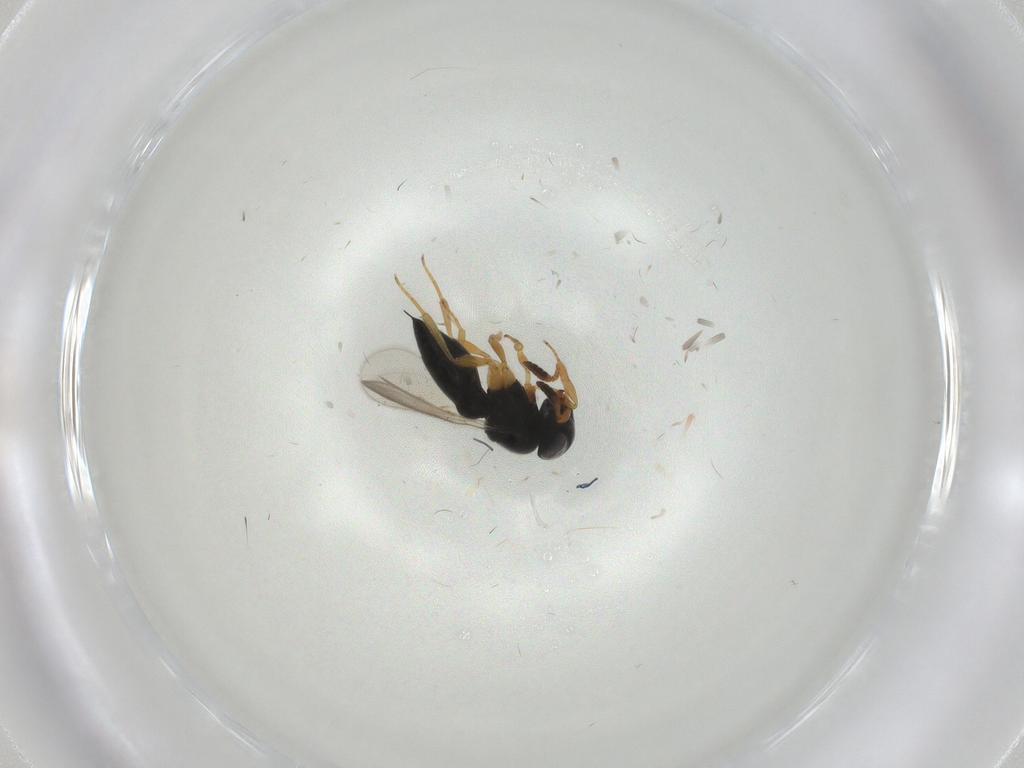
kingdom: Animalia
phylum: Arthropoda
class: Insecta
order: Hymenoptera
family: Scelionidae
